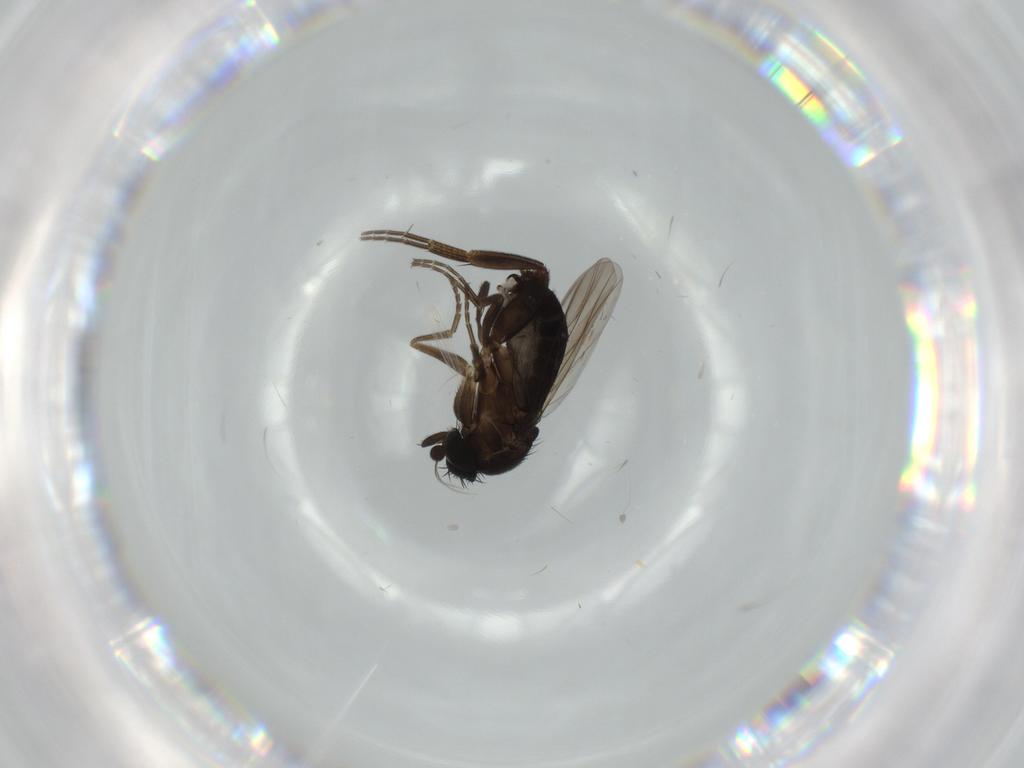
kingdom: Animalia
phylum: Arthropoda
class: Insecta
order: Diptera
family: Phoridae
